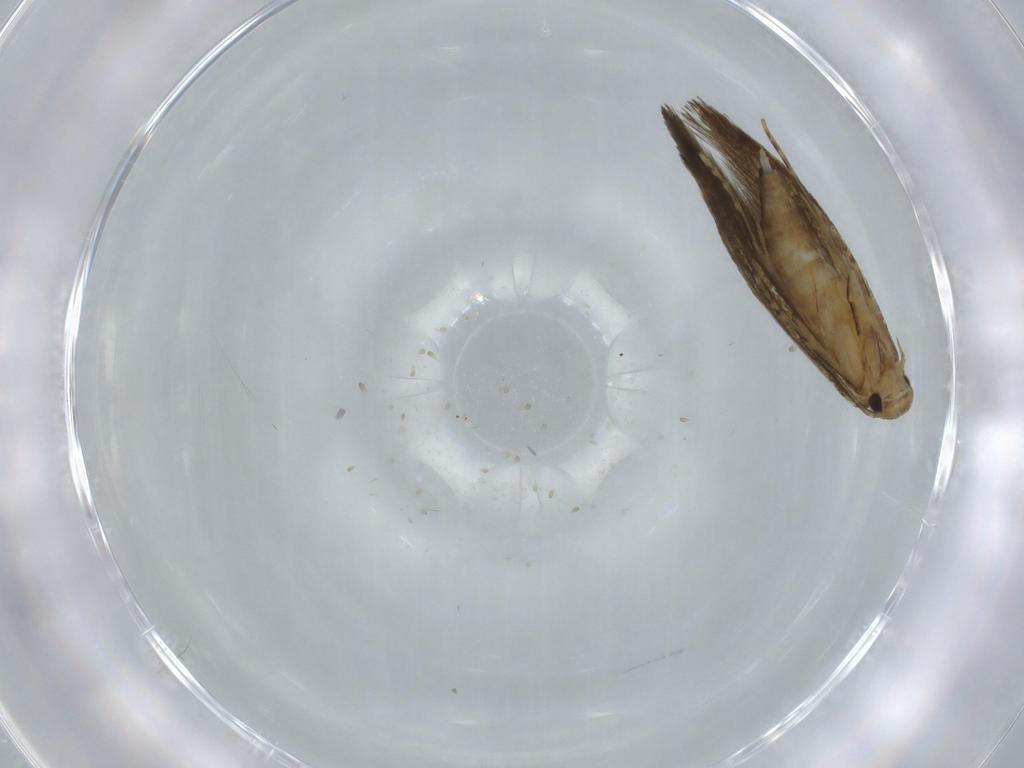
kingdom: Animalia
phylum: Arthropoda
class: Insecta
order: Lepidoptera
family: Tineidae
